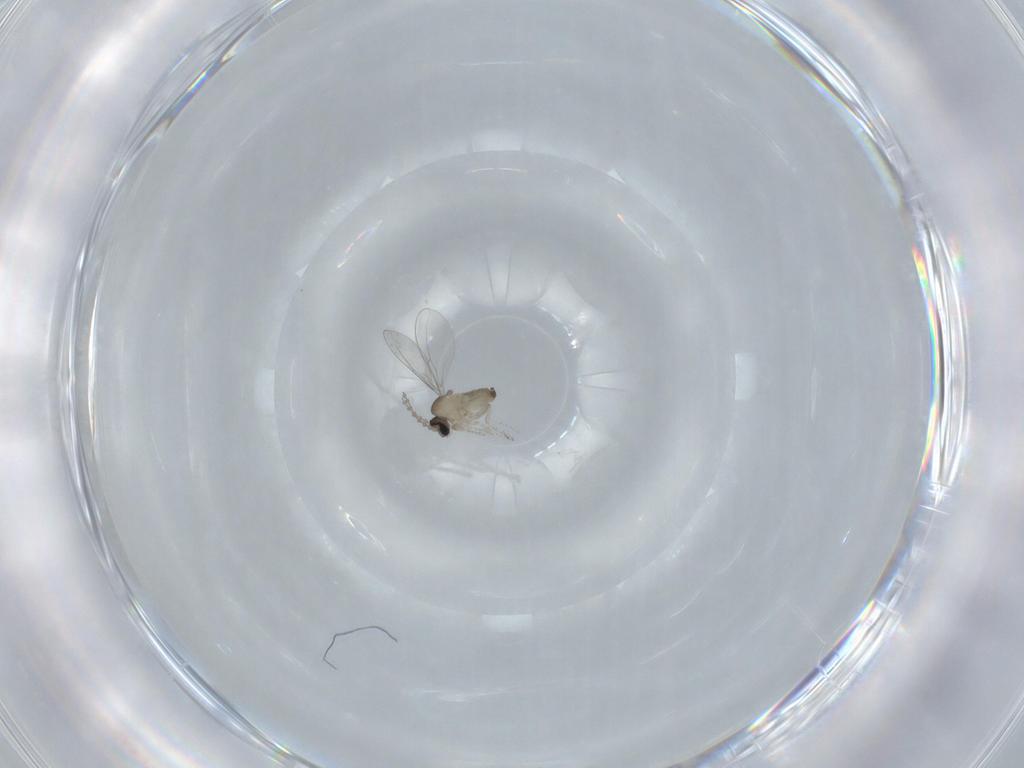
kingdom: Animalia
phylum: Arthropoda
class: Insecta
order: Diptera
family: Cecidomyiidae
